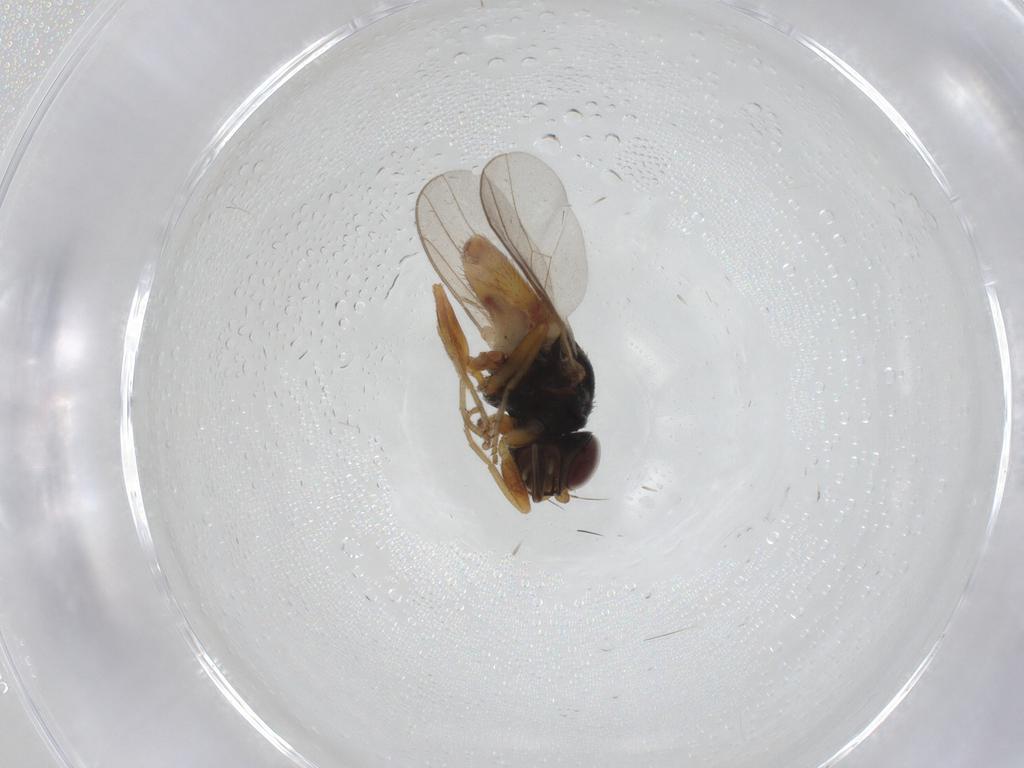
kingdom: Animalia
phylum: Arthropoda
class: Insecta
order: Diptera
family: Chloropidae
